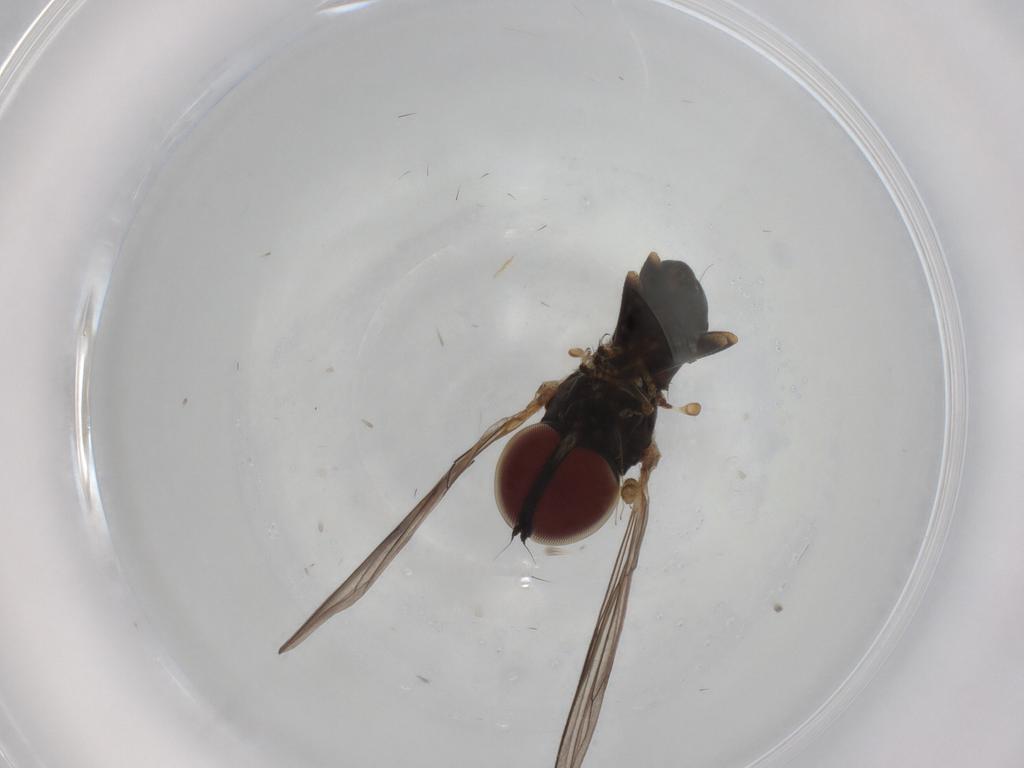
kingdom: Animalia
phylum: Arthropoda
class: Insecta
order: Diptera
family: Pipunculidae
